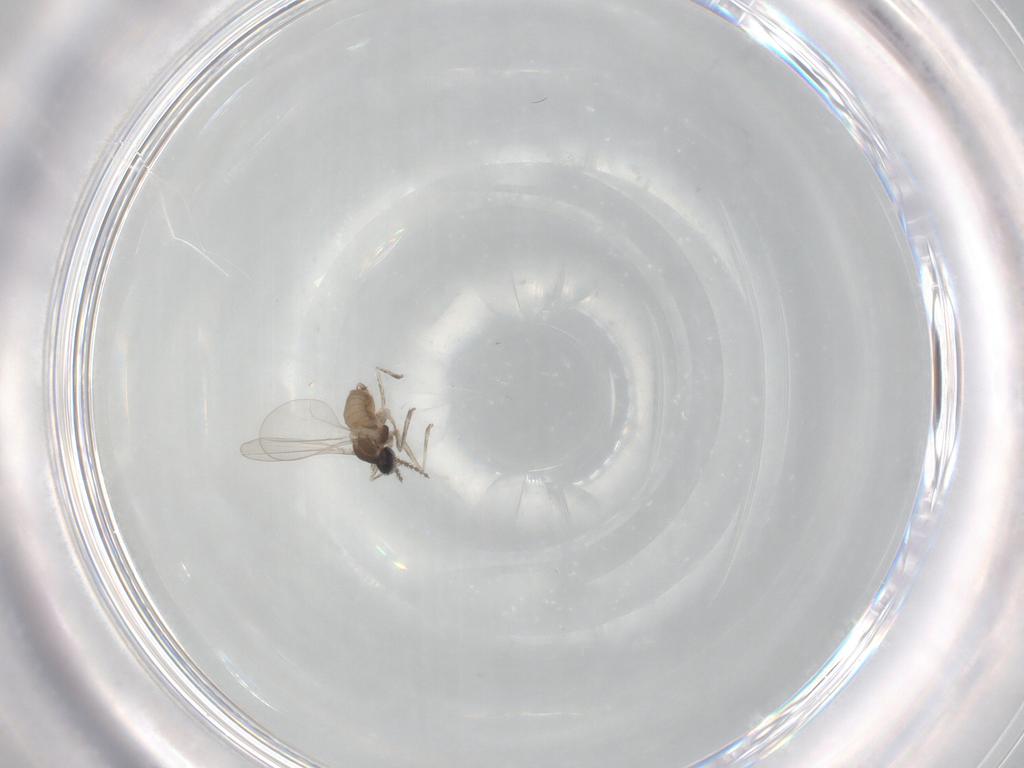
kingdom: Animalia
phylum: Arthropoda
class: Insecta
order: Diptera
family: Cecidomyiidae
